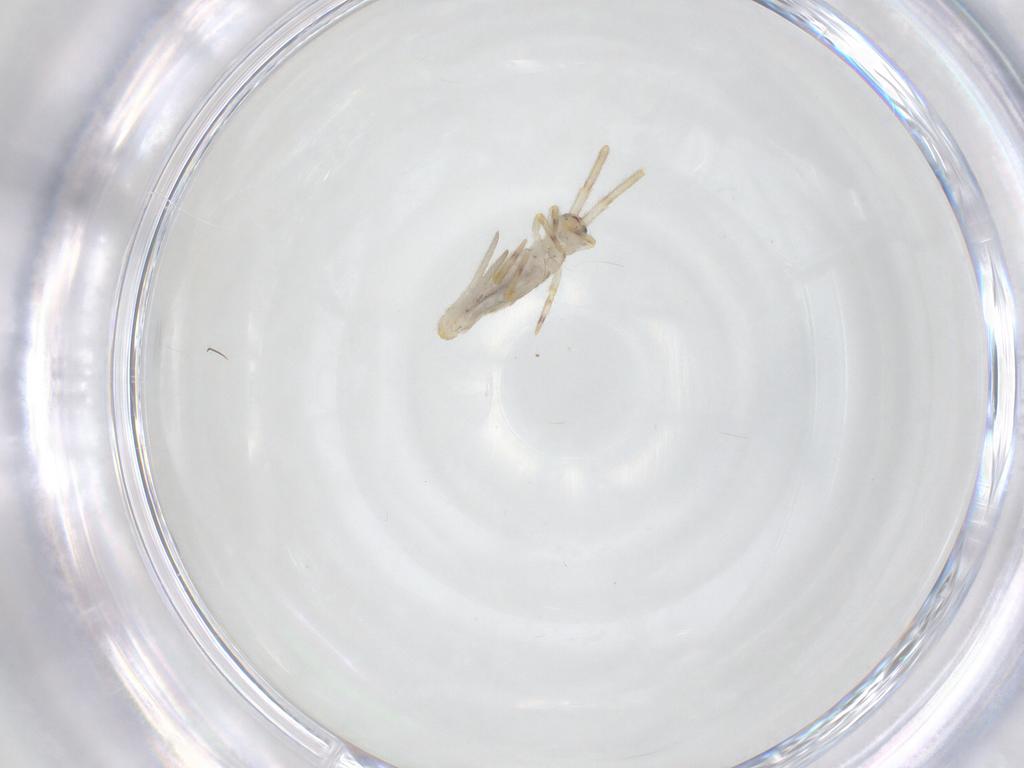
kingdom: Animalia
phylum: Arthropoda
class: Collembola
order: Entomobryomorpha
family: Entomobryidae
